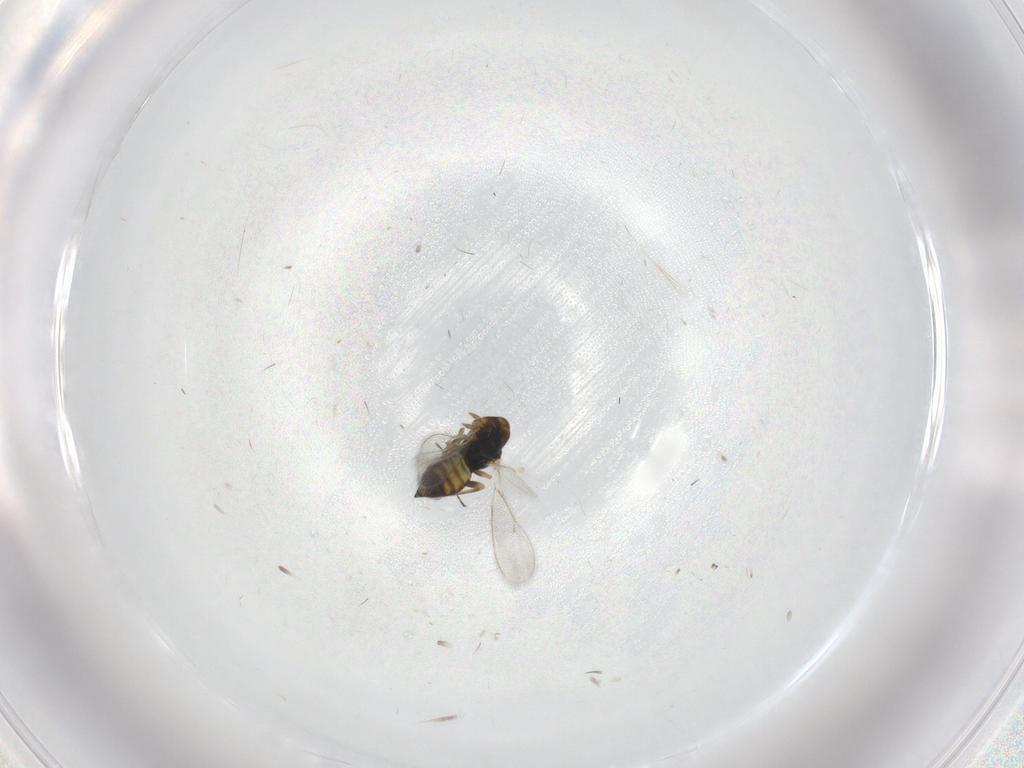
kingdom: Animalia
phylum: Arthropoda
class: Insecta
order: Hymenoptera
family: Eulophidae
